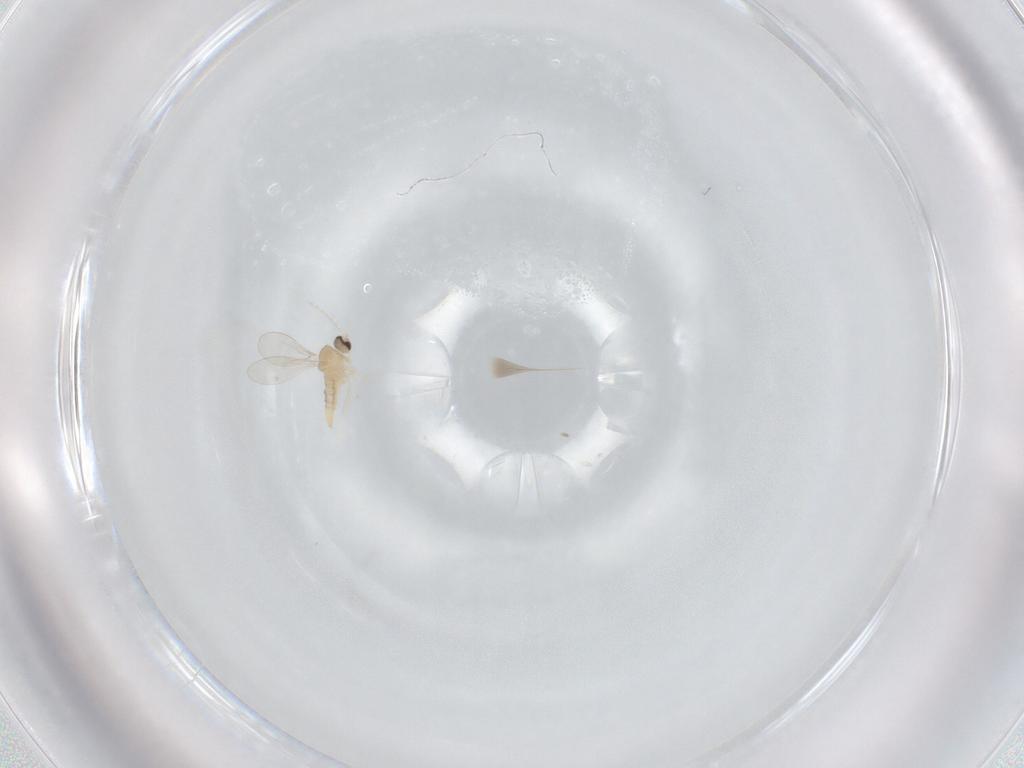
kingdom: Animalia
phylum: Arthropoda
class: Insecta
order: Diptera
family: Cecidomyiidae
